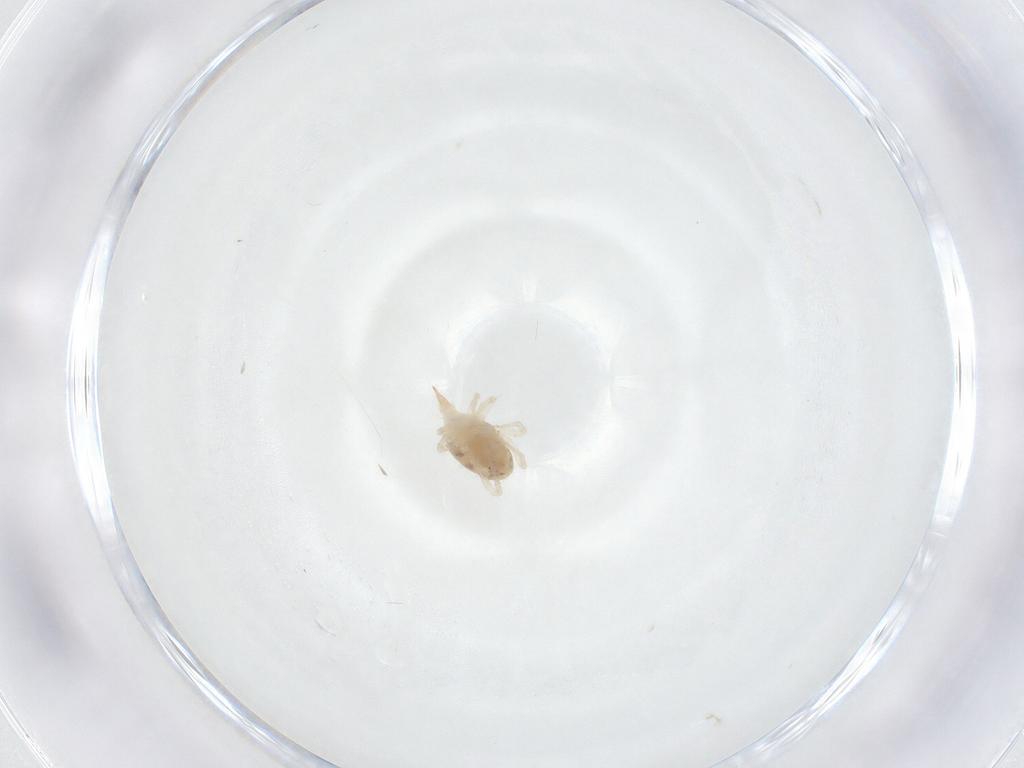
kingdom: Animalia
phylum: Arthropoda
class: Arachnida
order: Trombidiformes
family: Bdellidae
